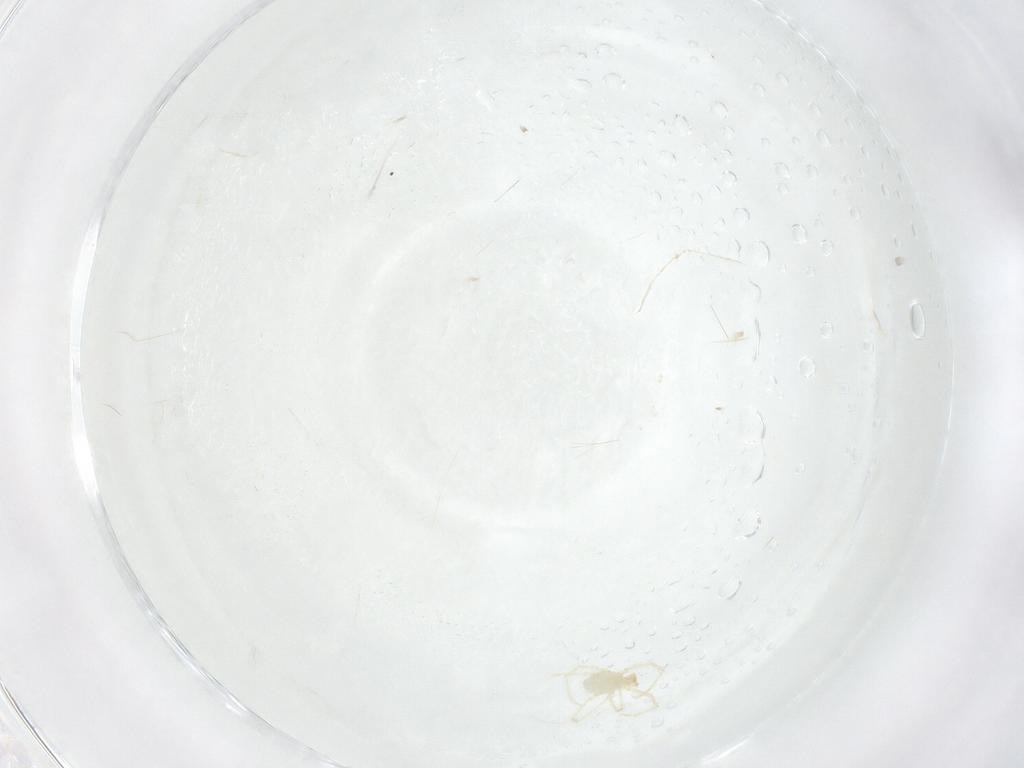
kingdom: Animalia
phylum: Arthropoda
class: Arachnida
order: Trombidiformes
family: Erythraeidae
